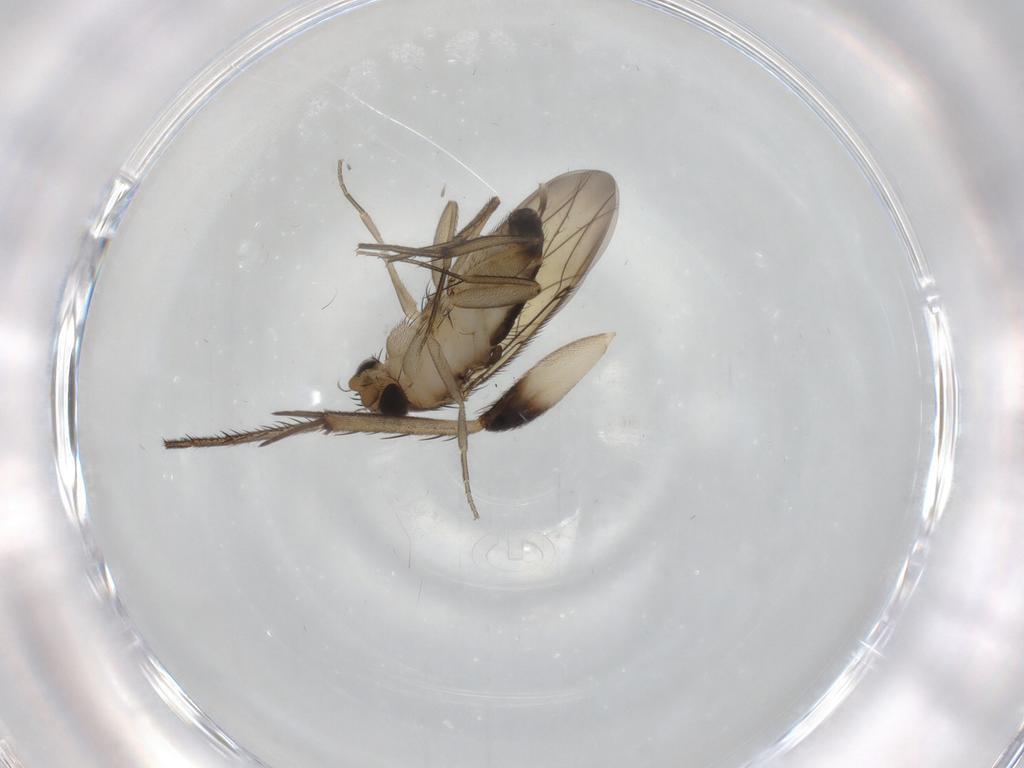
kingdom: Animalia
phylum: Arthropoda
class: Insecta
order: Diptera
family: Phoridae
